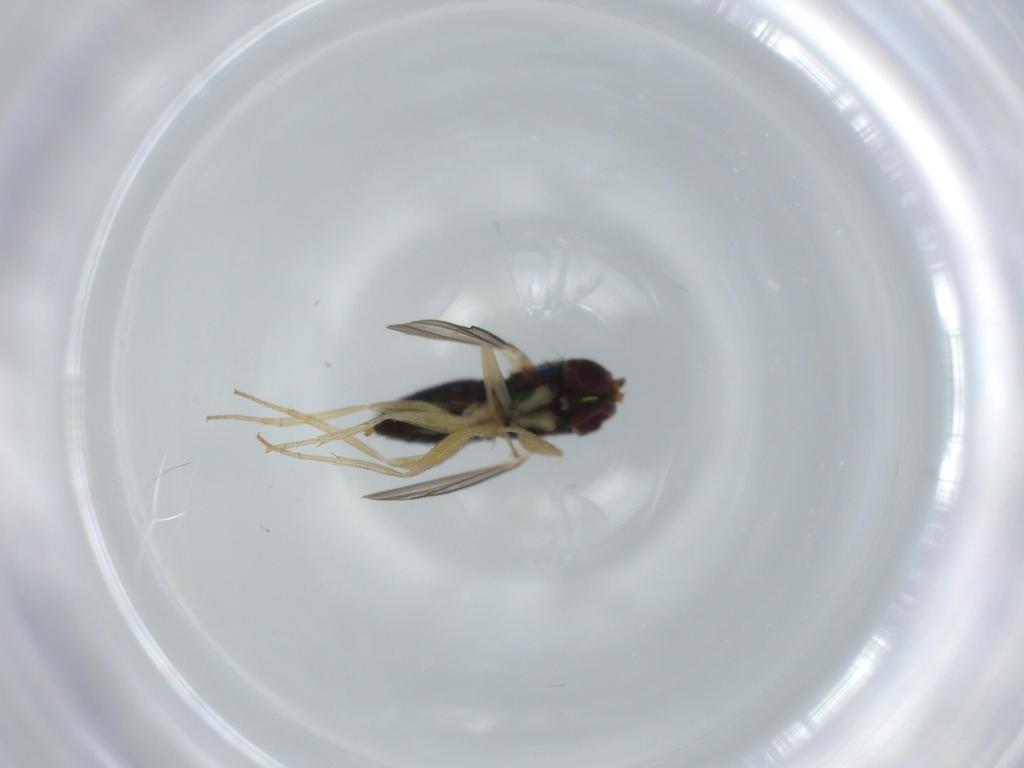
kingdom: Animalia
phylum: Arthropoda
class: Insecta
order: Diptera
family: Dolichopodidae
